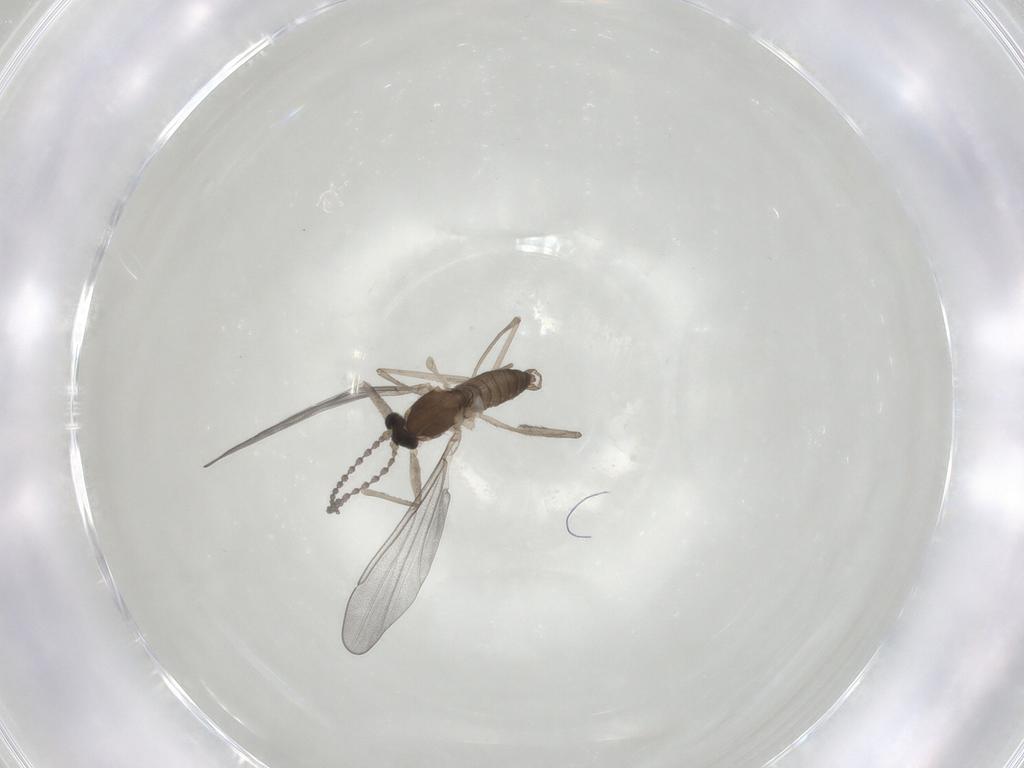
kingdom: Animalia
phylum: Arthropoda
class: Insecta
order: Diptera
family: Cecidomyiidae
